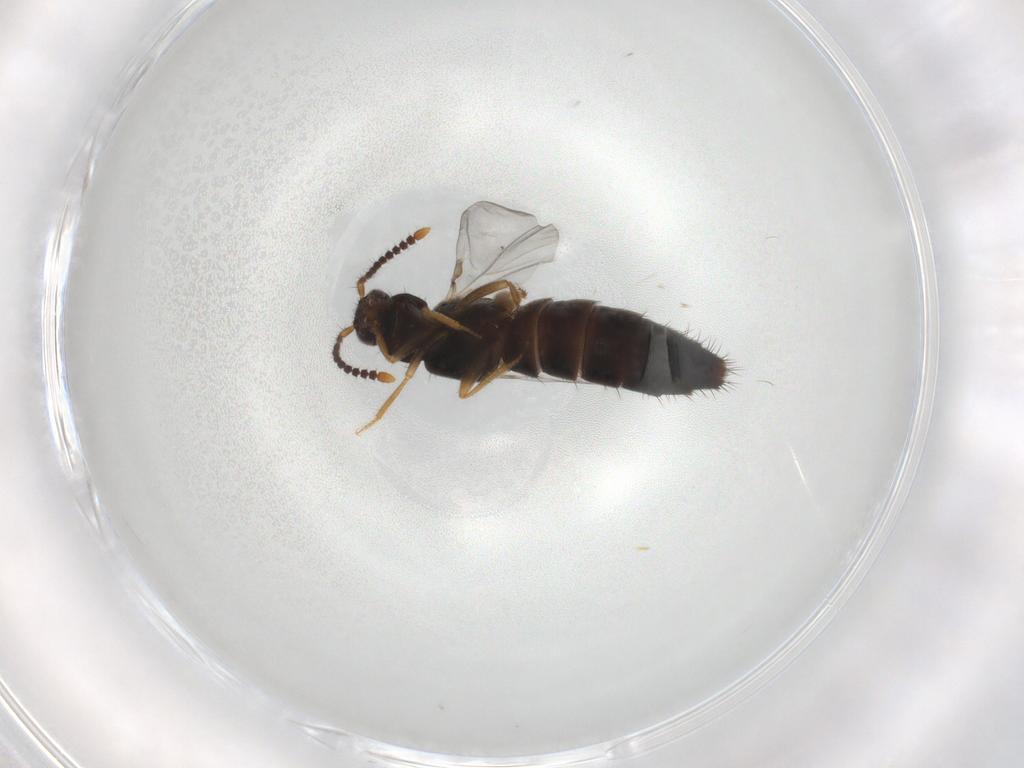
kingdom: Animalia
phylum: Arthropoda
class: Insecta
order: Coleoptera
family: Staphylinidae
